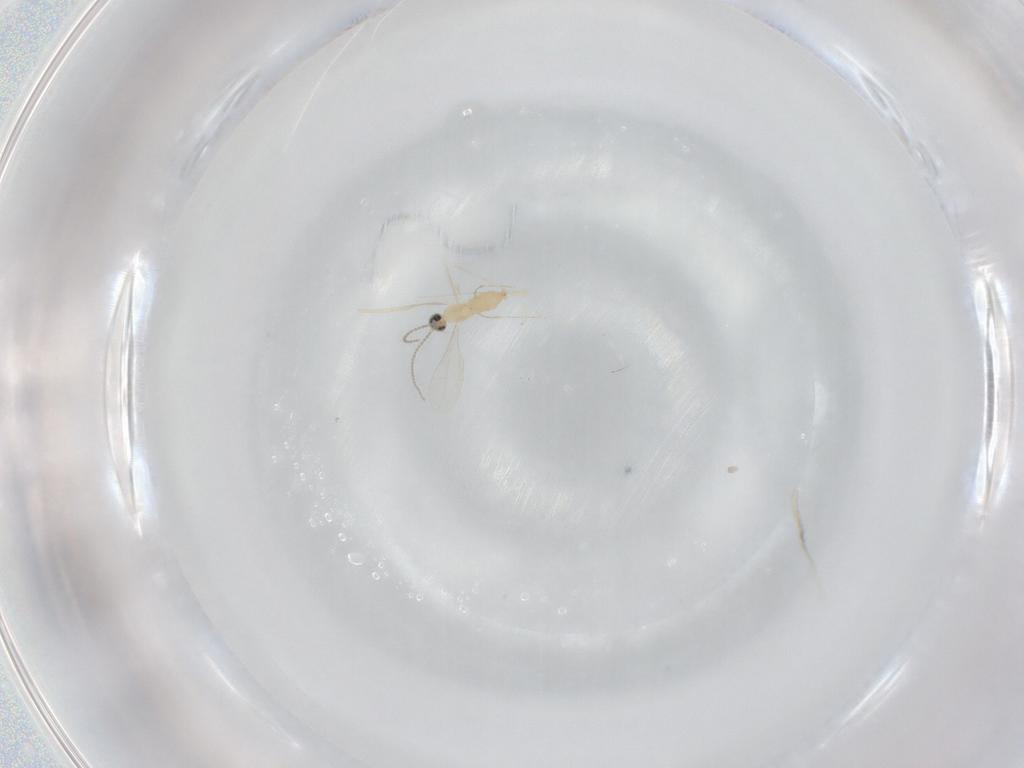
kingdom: Animalia
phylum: Arthropoda
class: Insecta
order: Diptera
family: Cecidomyiidae
